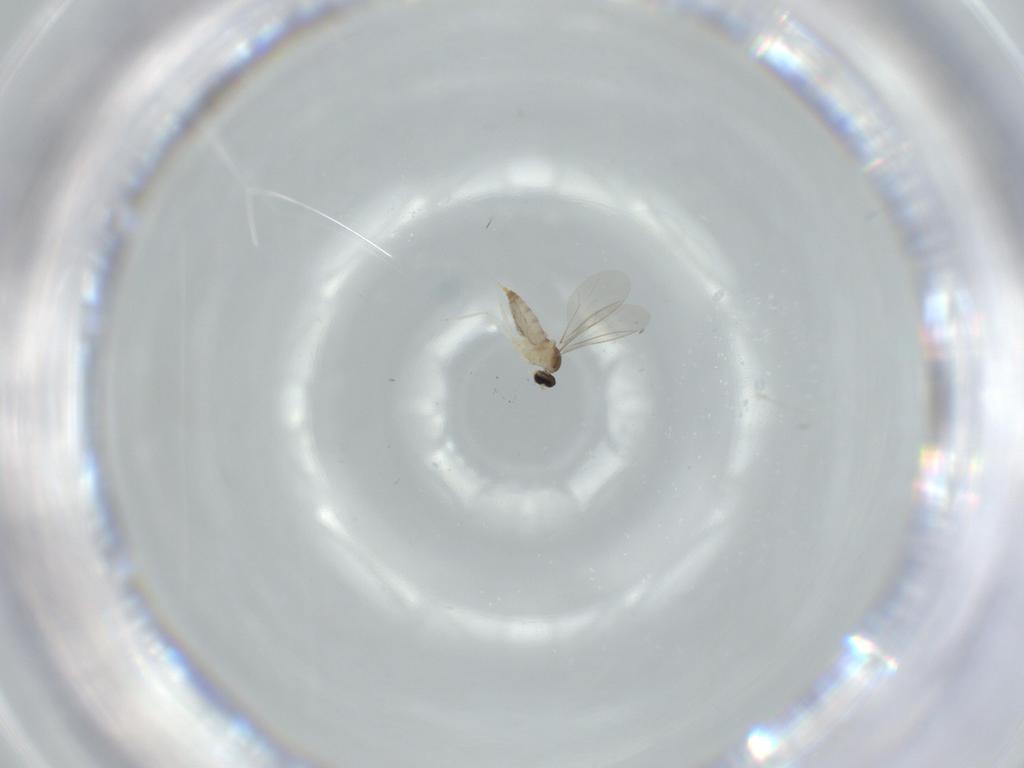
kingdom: Animalia
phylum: Arthropoda
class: Insecta
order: Diptera
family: Cecidomyiidae
